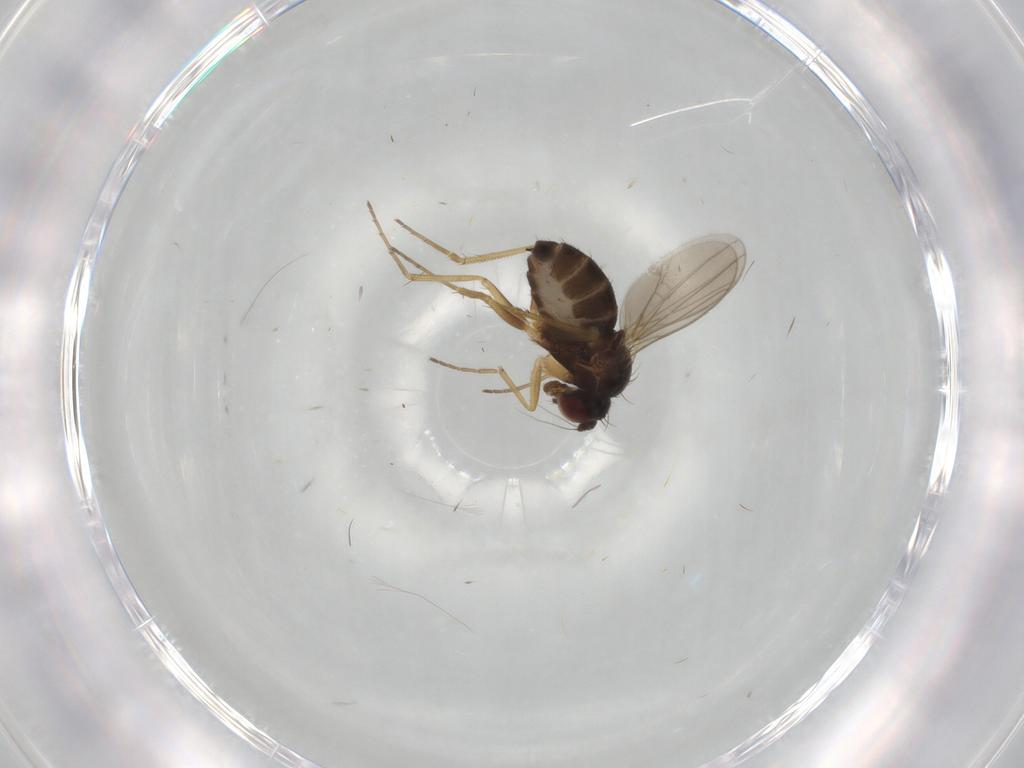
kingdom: Animalia
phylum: Arthropoda
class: Insecta
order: Diptera
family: Dolichopodidae
